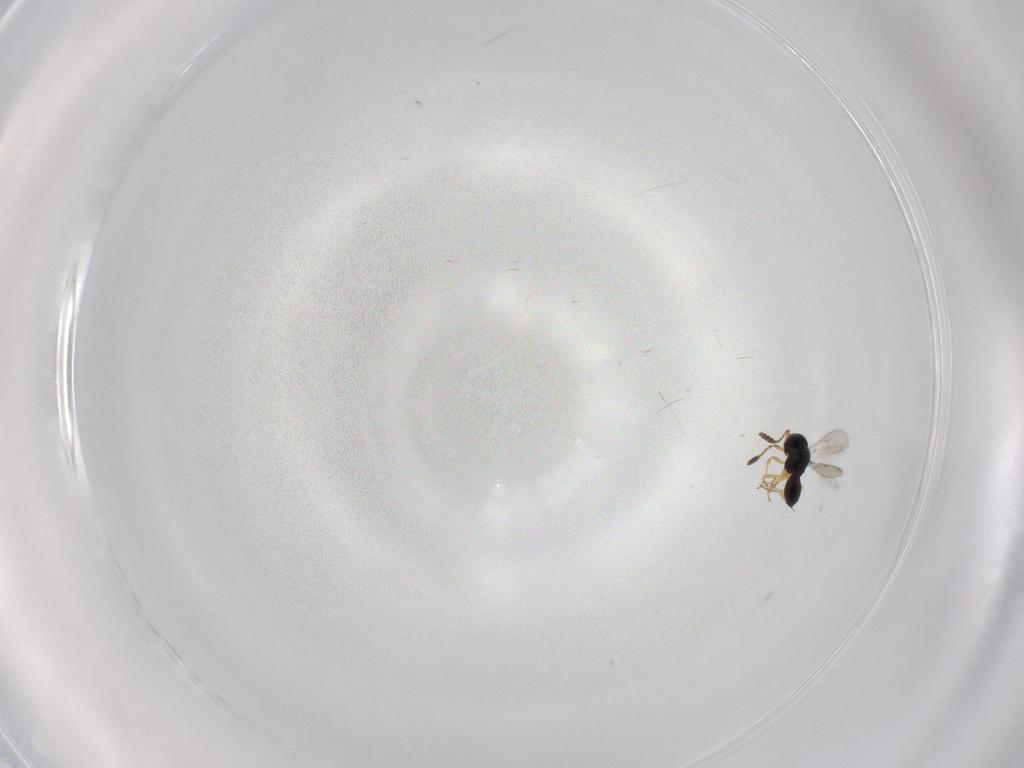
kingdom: Animalia
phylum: Arthropoda
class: Insecta
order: Hymenoptera
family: Scelionidae
